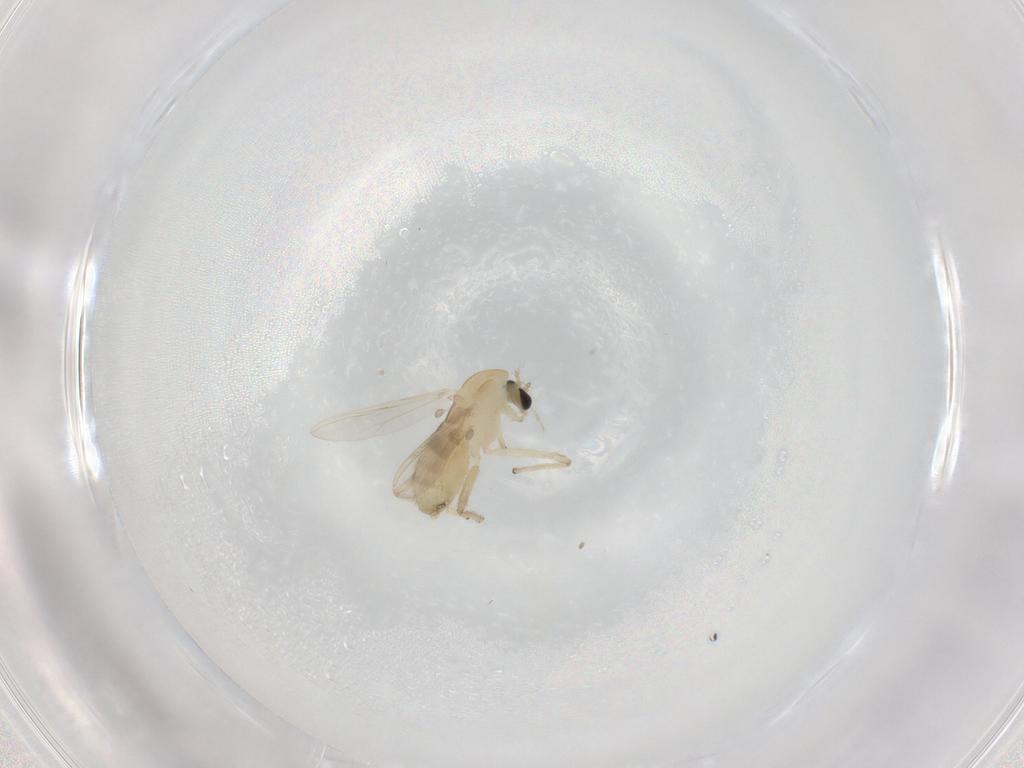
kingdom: Animalia
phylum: Arthropoda
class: Insecta
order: Diptera
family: Chironomidae
